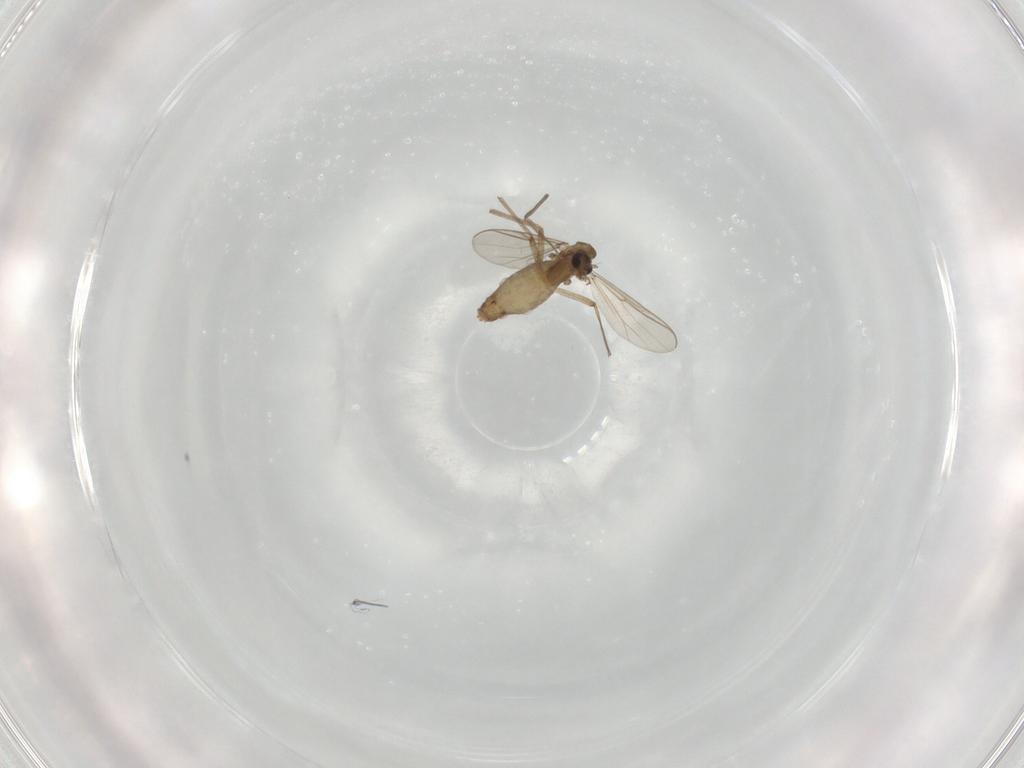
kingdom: Animalia
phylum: Arthropoda
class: Insecta
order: Diptera
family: Chironomidae
